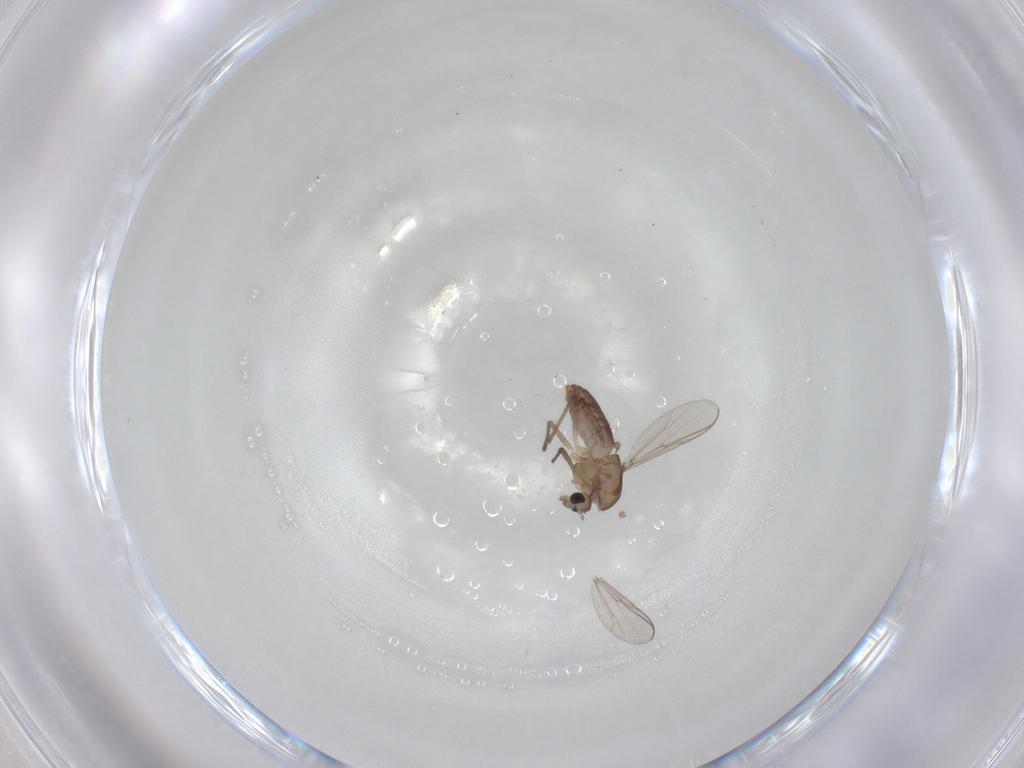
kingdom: Animalia
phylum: Arthropoda
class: Insecta
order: Diptera
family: Chironomidae
